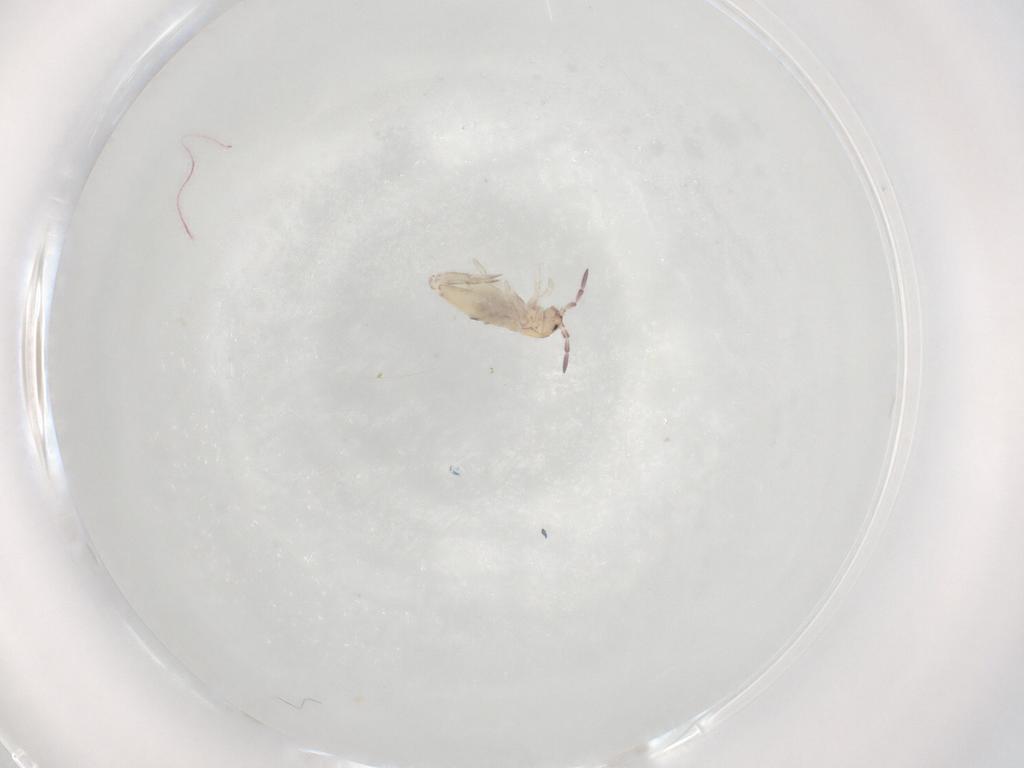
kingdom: Animalia
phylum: Arthropoda
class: Collembola
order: Entomobryomorpha
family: Entomobryidae
